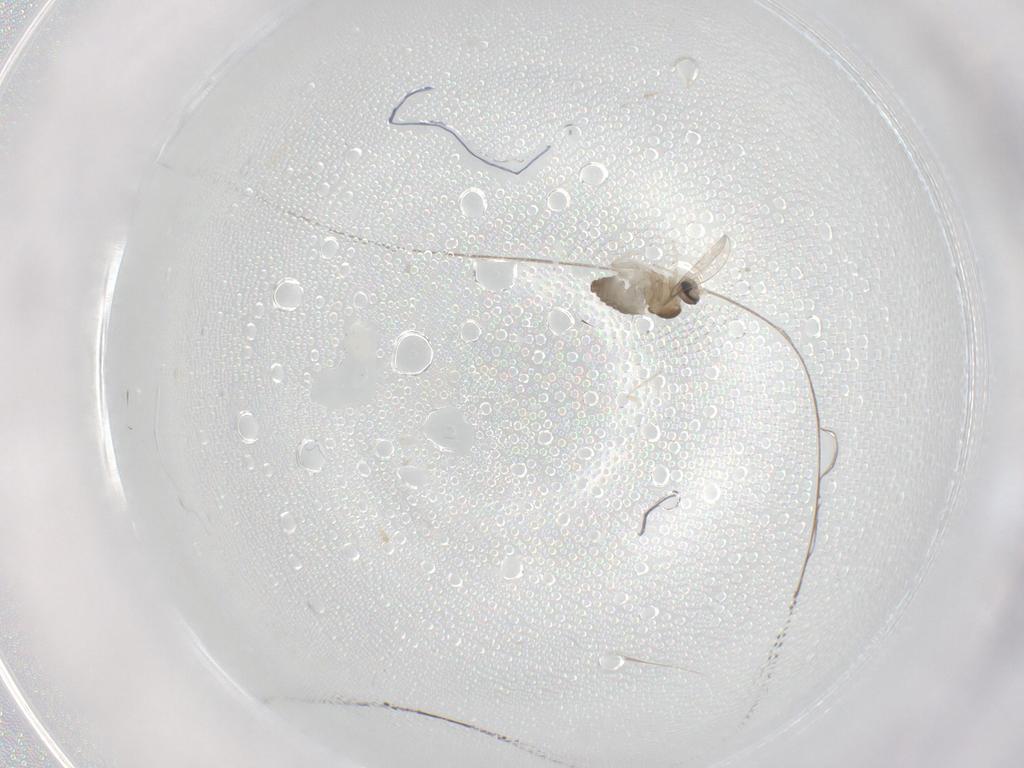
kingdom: Animalia
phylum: Arthropoda
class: Insecta
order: Diptera
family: Cecidomyiidae
